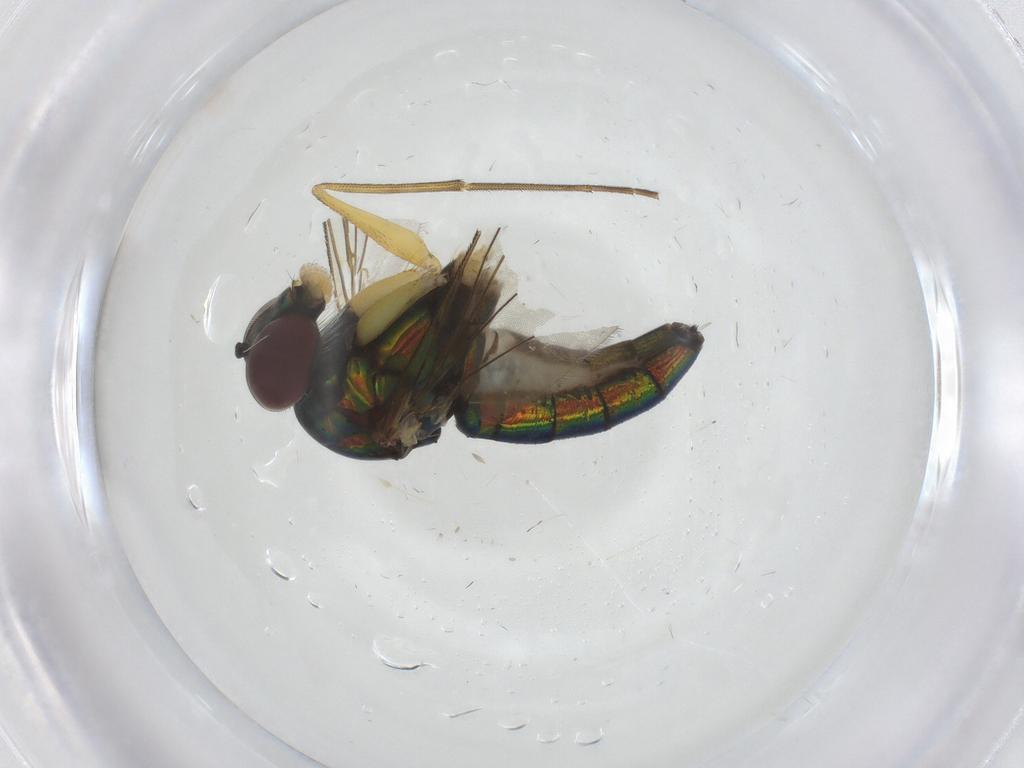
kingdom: Animalia
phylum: Arthropoda
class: Insecta
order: Diptera
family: Dolichopodidae
